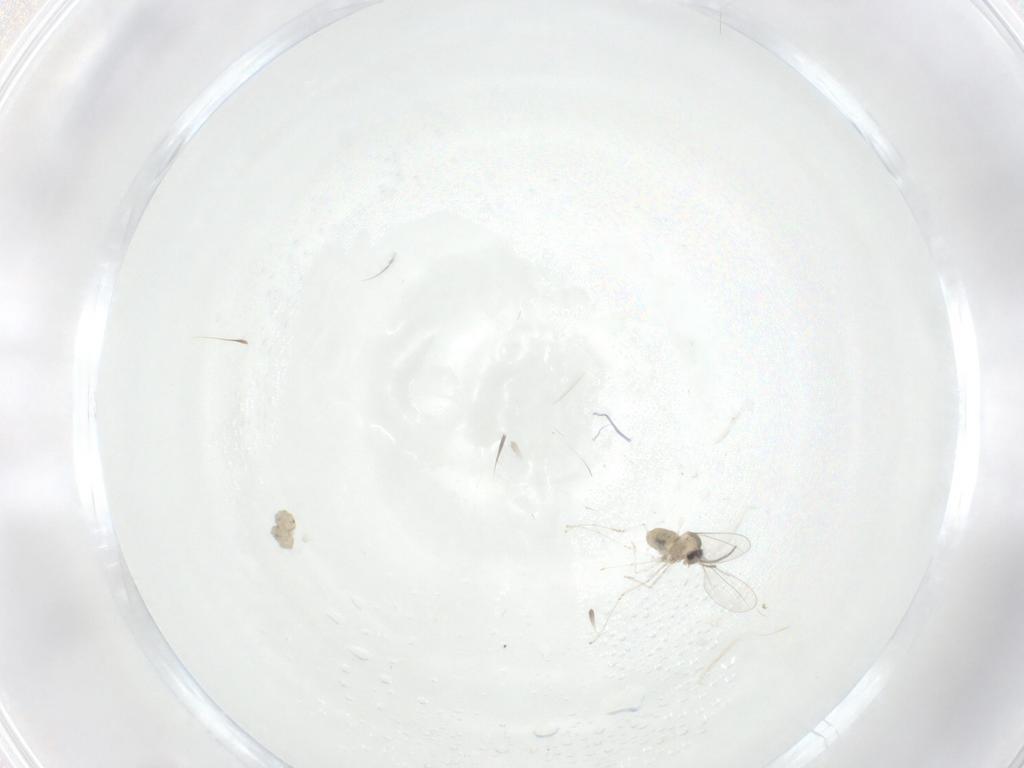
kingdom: Animalia
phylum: Arthropoda
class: Insecta
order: Diptera
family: Cecidomyiidae
